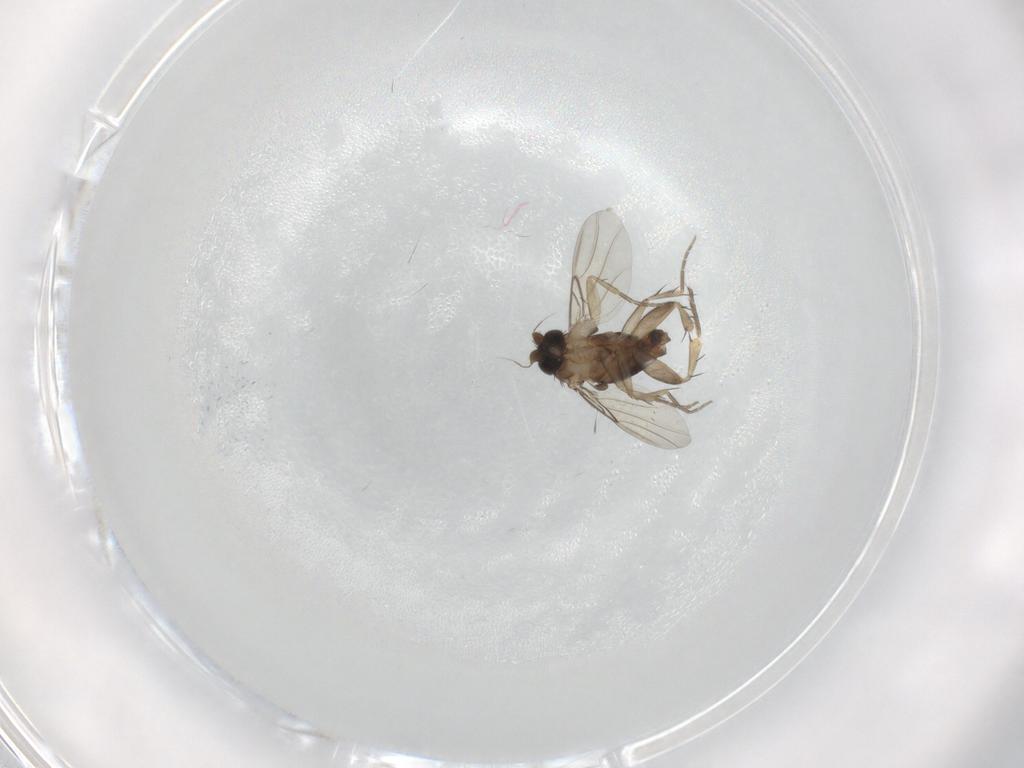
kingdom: Animalia
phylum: Arthropoda
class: Insecta
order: Diptera
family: Phoridae
